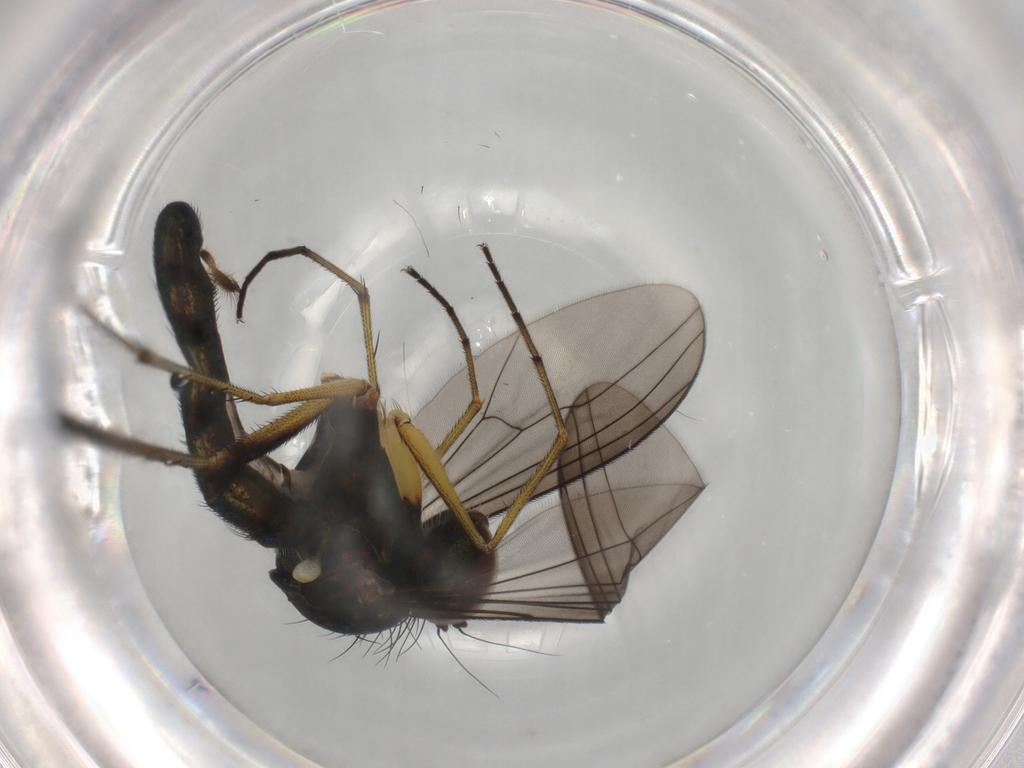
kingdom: Animalia
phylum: Arthropoda
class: Insecta
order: Diptera
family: Dolichopodidae
